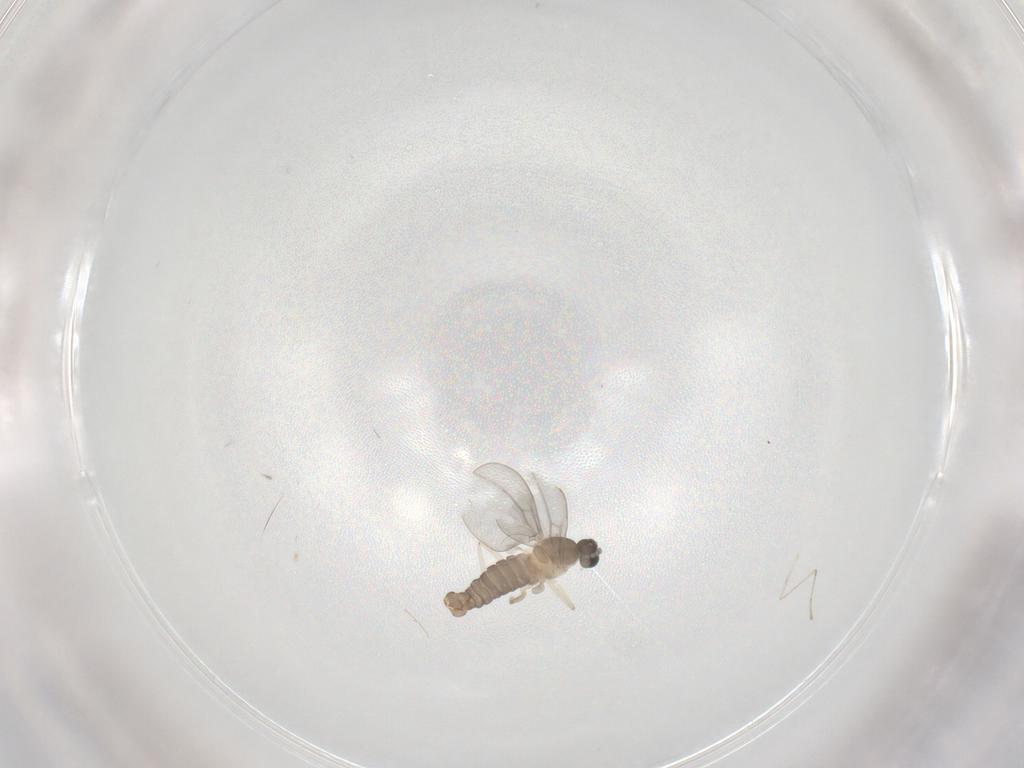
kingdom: Animalia
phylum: Arthropoda
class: Insecta
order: Diptera
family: Cecidomyiidae
